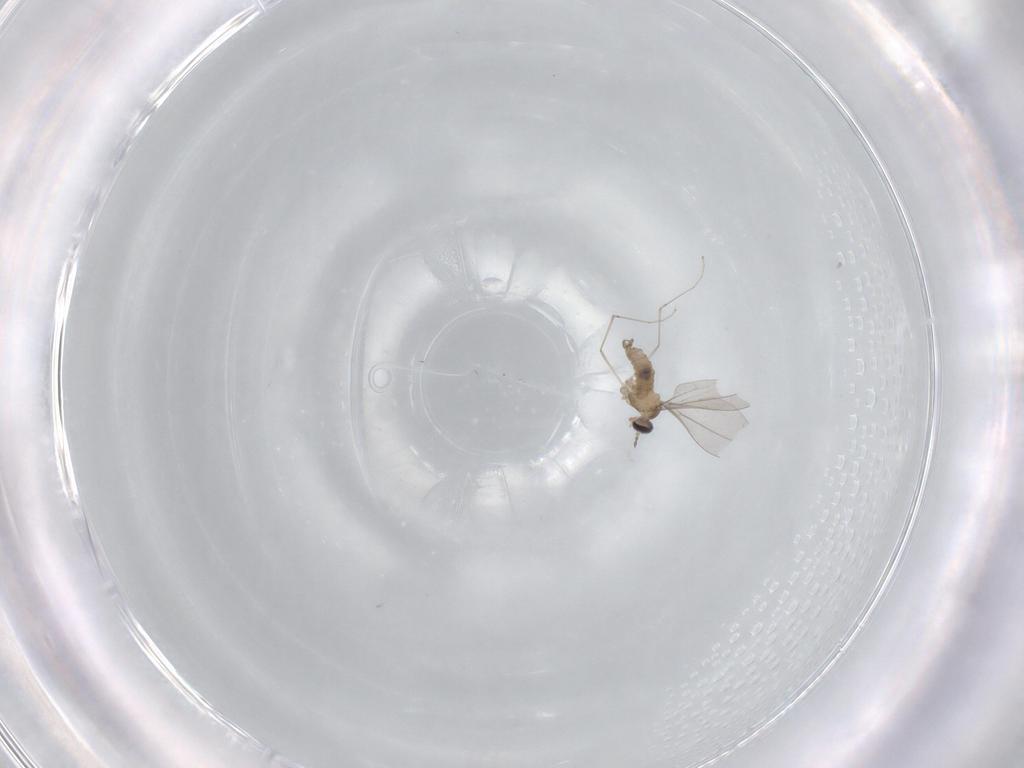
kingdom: Animalia
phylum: Arthropoda
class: Insecta
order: Diptera
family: Cecidomyiidae
